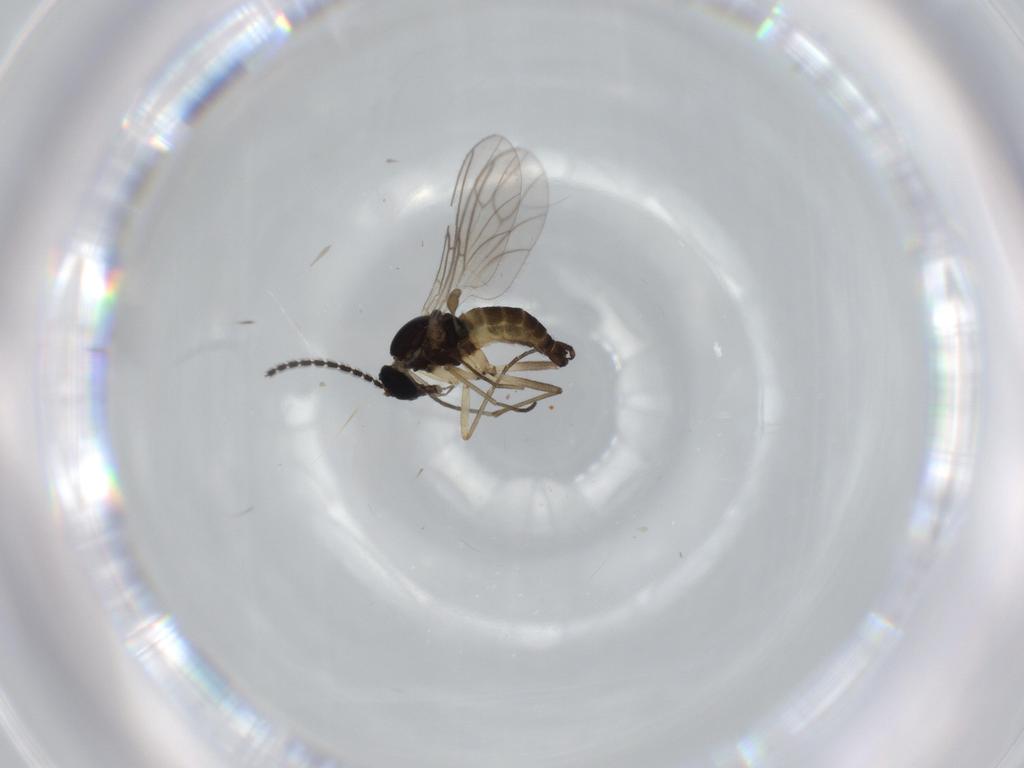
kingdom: Animalia
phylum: Arthropoda
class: Insecta
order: Diptera
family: Sciaridae
